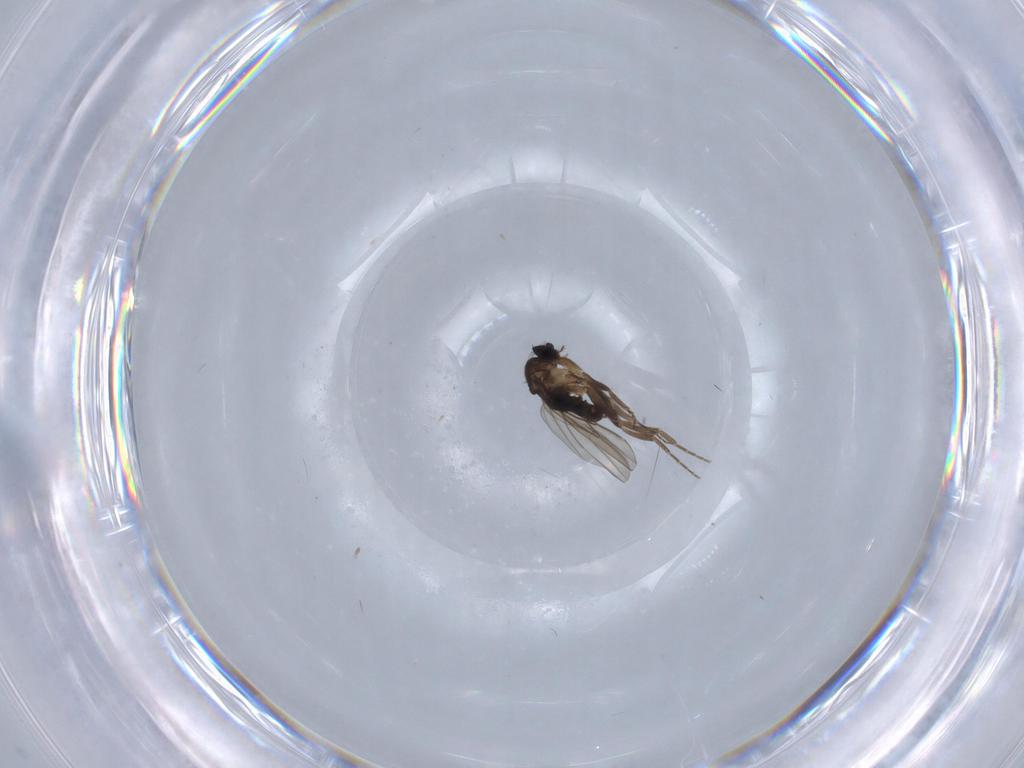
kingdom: Animalia
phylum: Arthropoda
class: Insecta
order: Diptera
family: Phoridae
